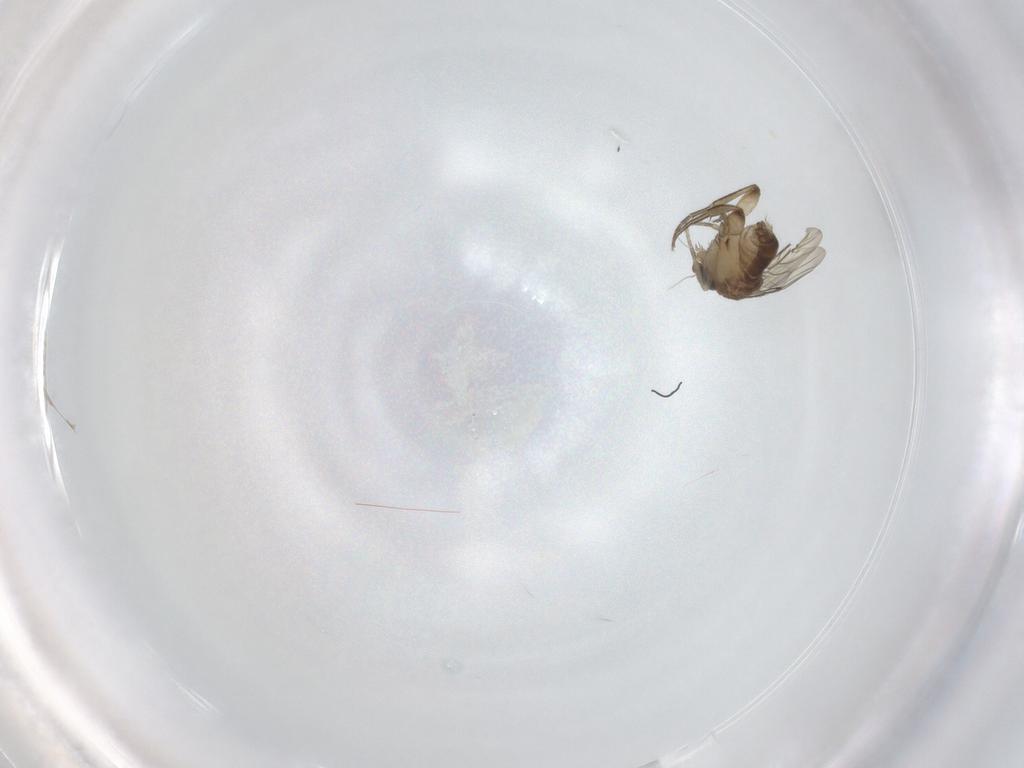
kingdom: Animalia
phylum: Arthropoda
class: Insecta
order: Diptera
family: Phoridae
